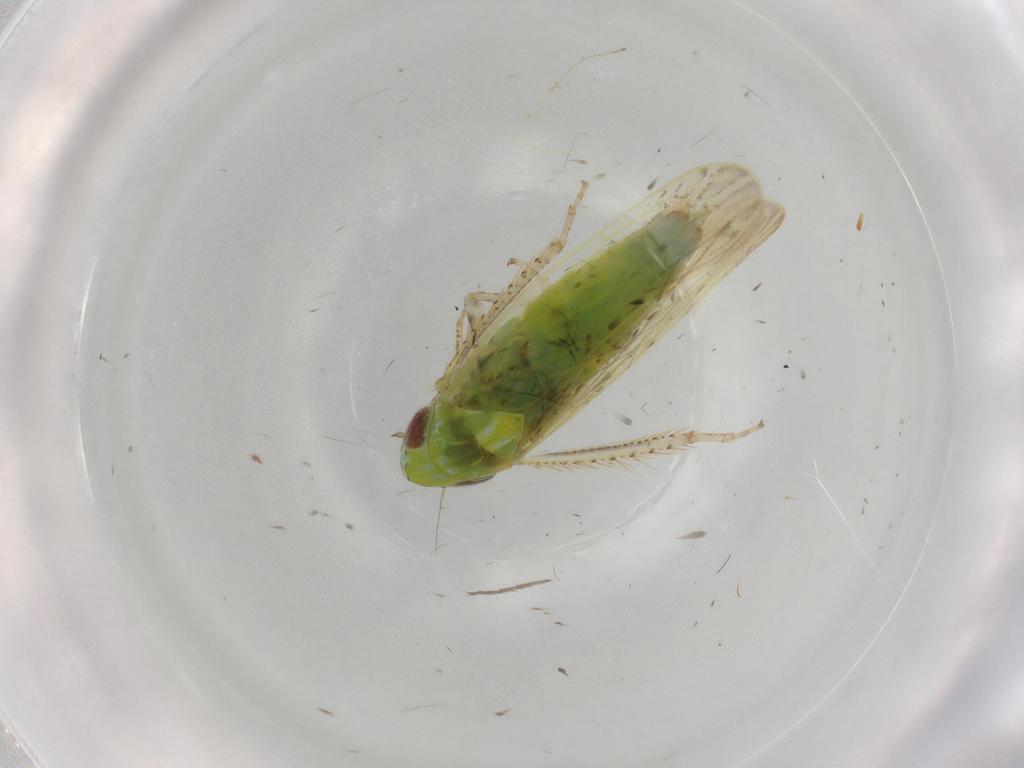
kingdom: Animalia
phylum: Arthropoda
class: Insecta
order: Hemiptera
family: Cicadellidae
